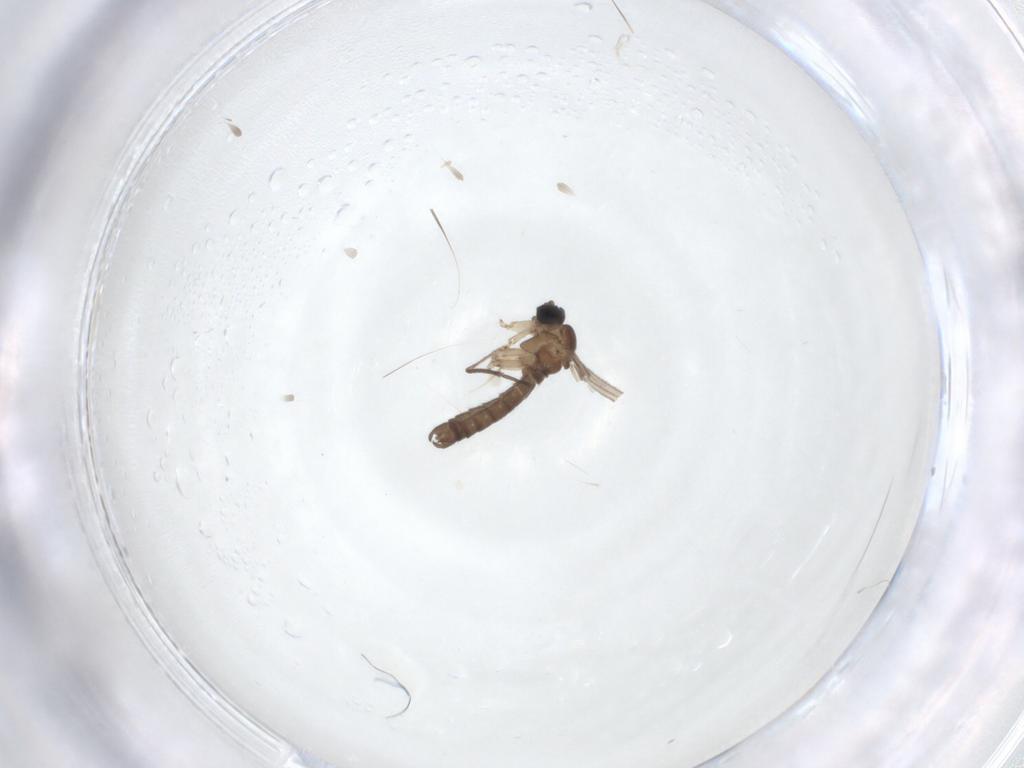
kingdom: Animalia
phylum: Arthropoda
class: Insecta
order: Diptera
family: Sciaridae
